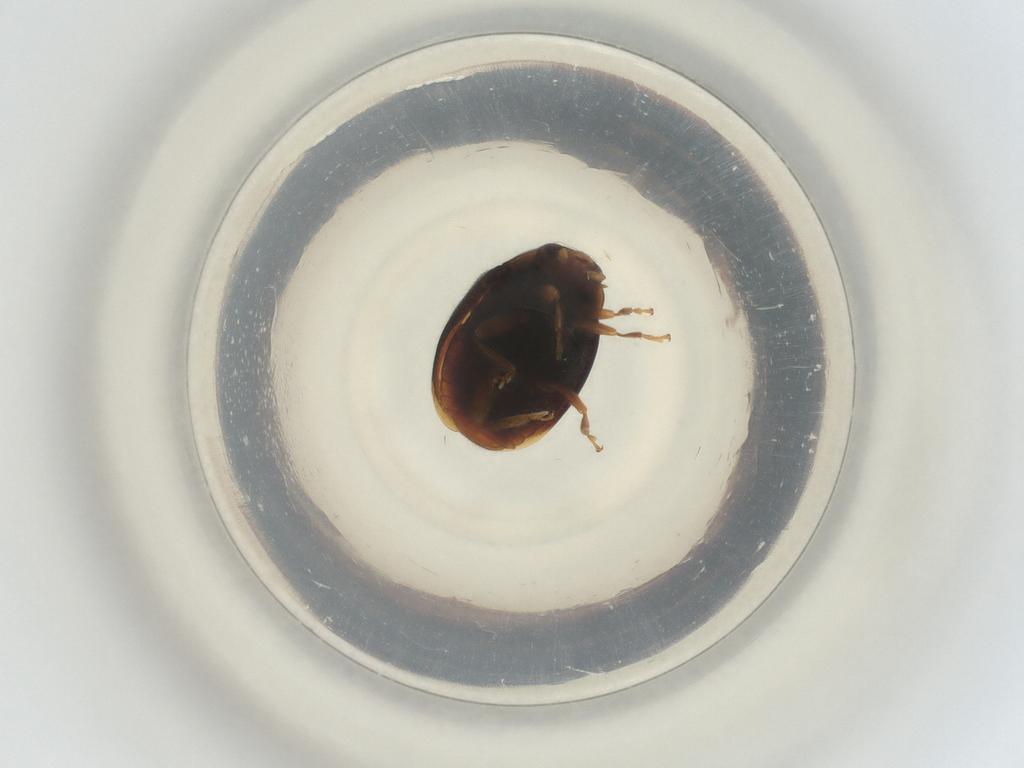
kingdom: Animalia
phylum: Arthropoda
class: Insecta
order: Coleoptera
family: Coccinellidae
